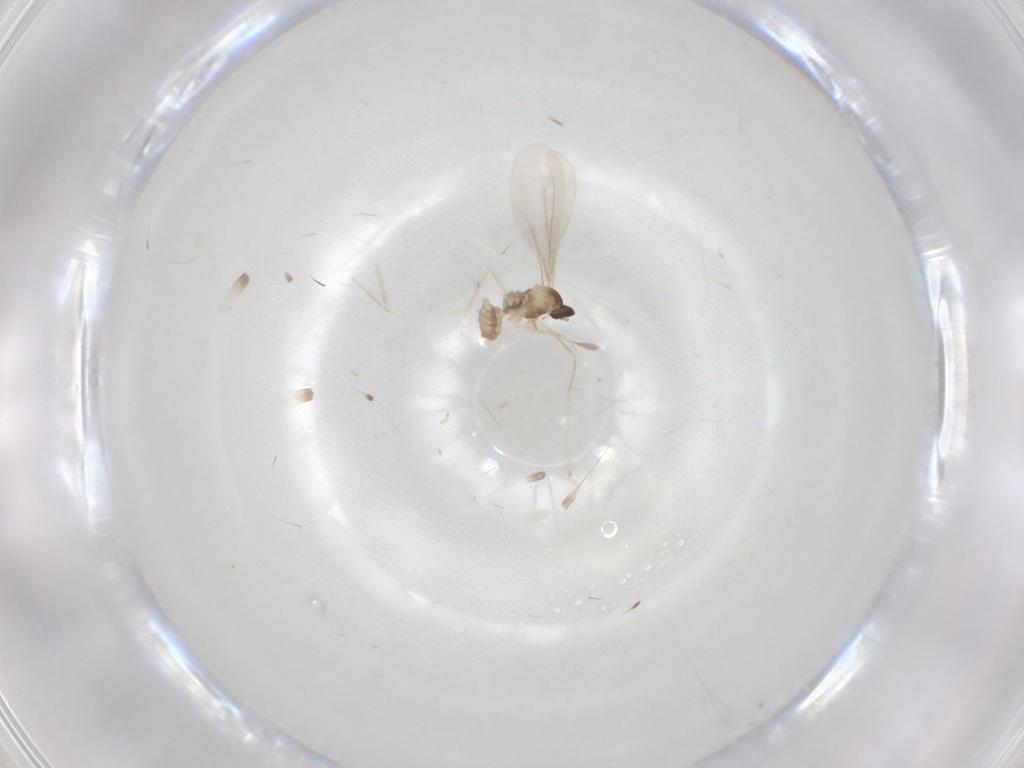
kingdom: Animalia
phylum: Arthropoda
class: Insecta
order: Diptera
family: Cecidomyiidae
